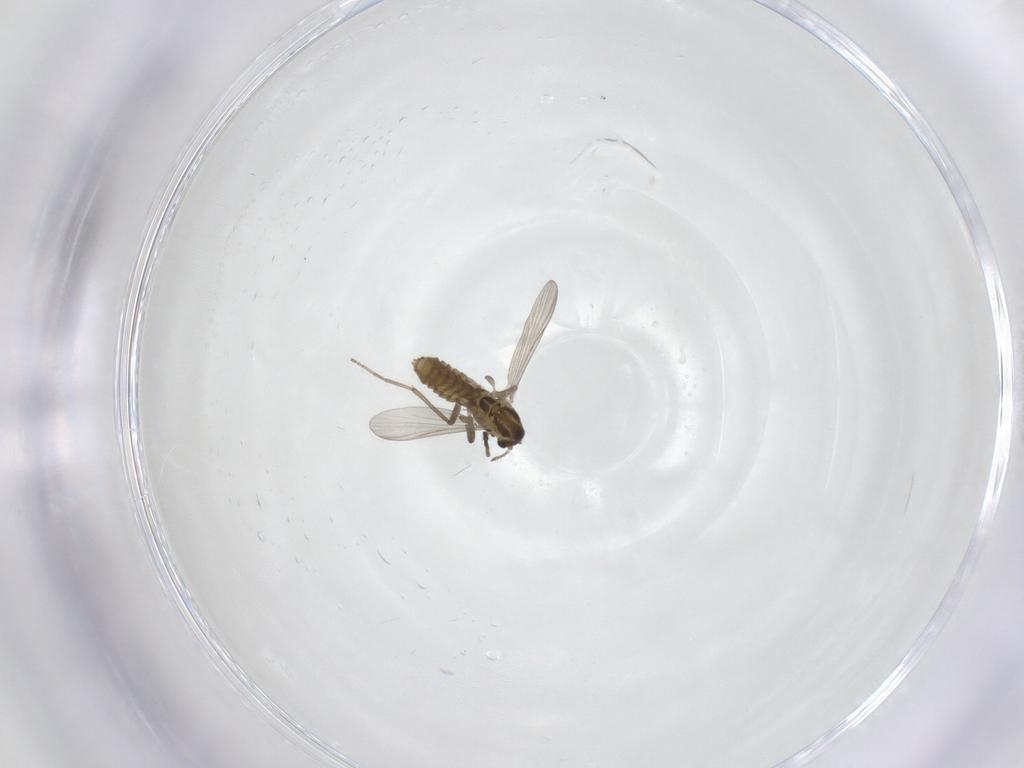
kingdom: Animalia
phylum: Arthropoda
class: Insecta
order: Diptera
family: Chironomidae
